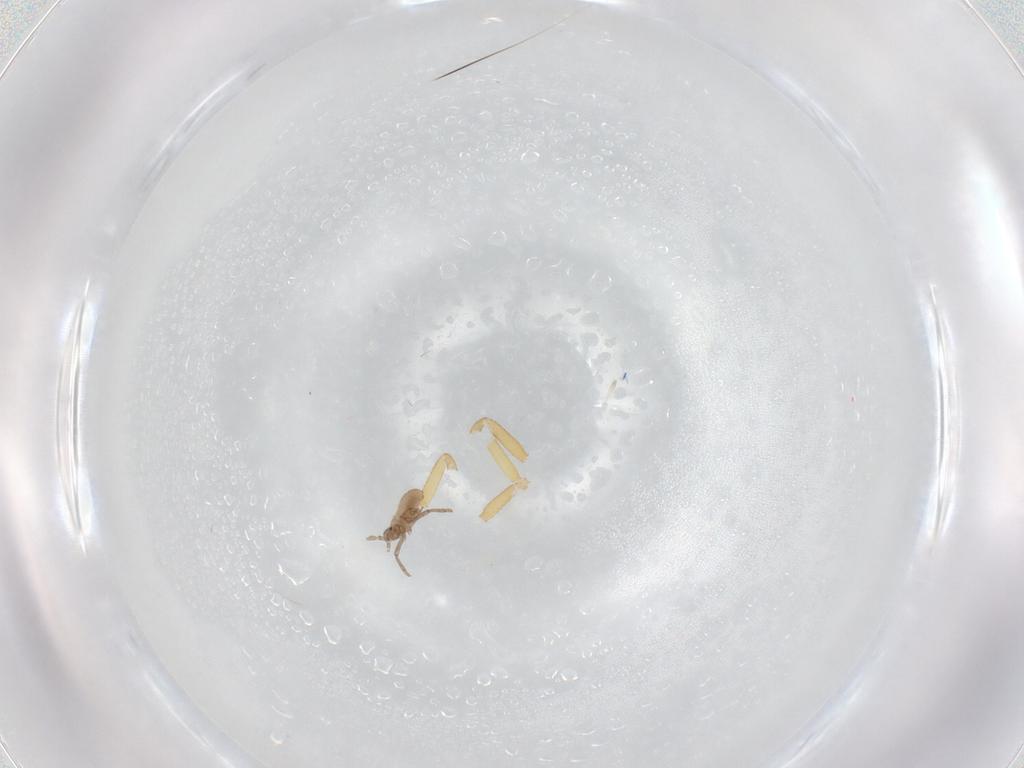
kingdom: Animalia
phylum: Arthropoda
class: Insecta
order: Hemiptera
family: Aphididae
